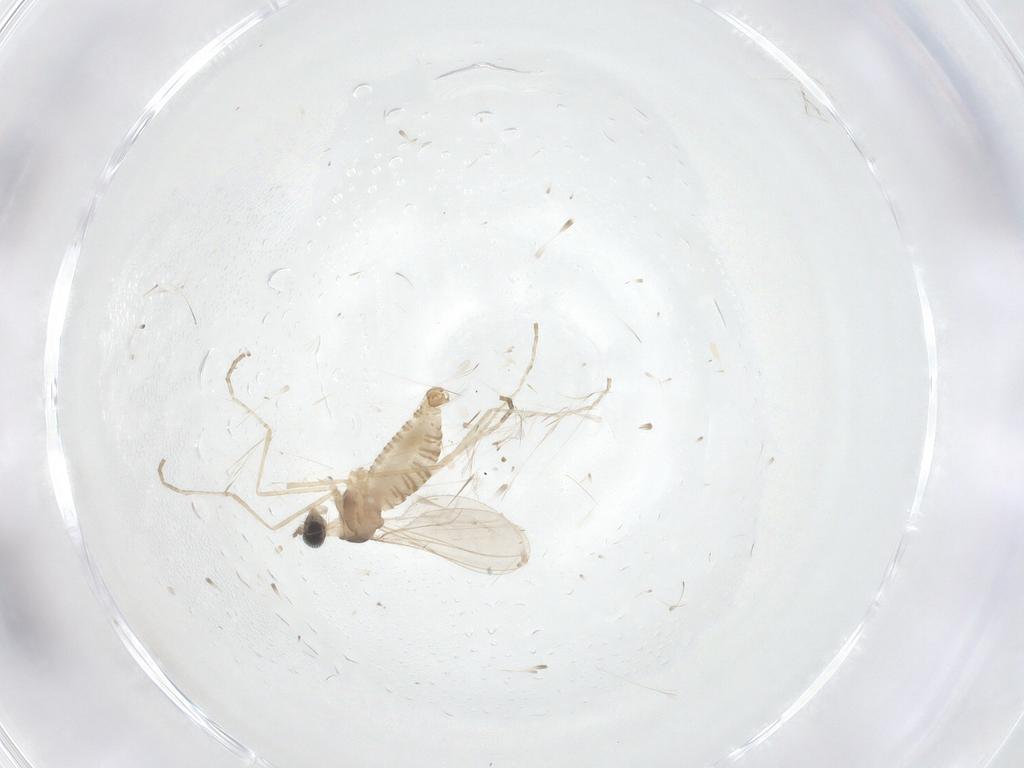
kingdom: Animalia
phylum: Arthropoda
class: Insecta
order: Diptera
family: Cecidomyiidae
